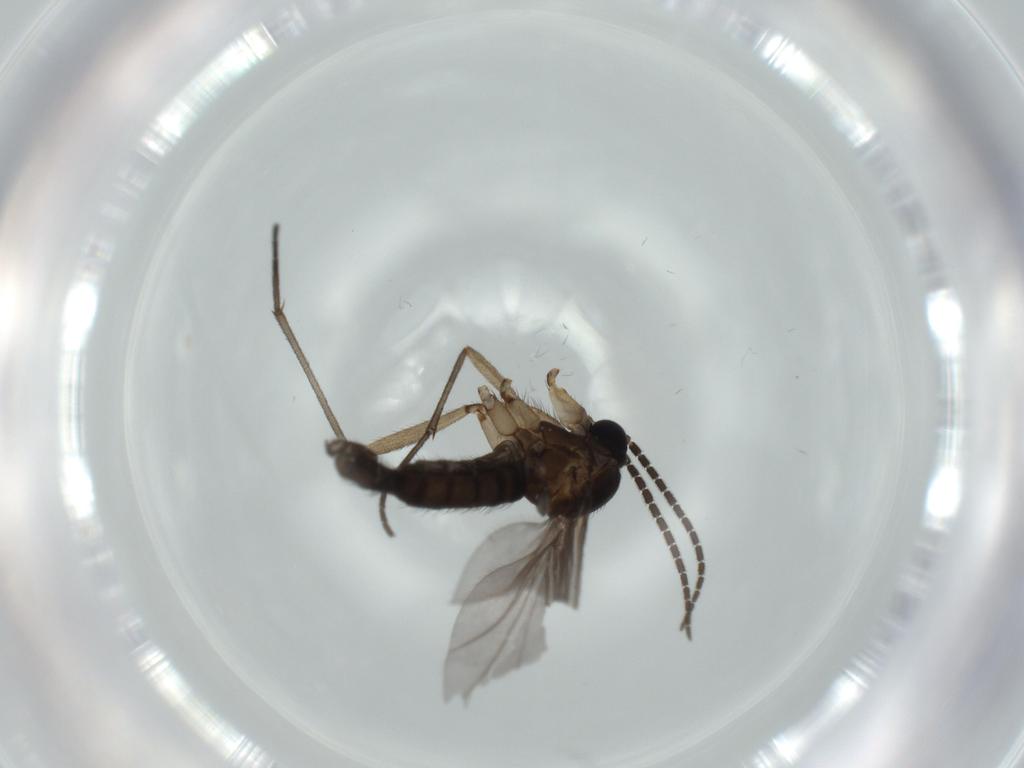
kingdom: Animalia
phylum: Arthropoda
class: Insecta
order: Diptera
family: Sciaridae
